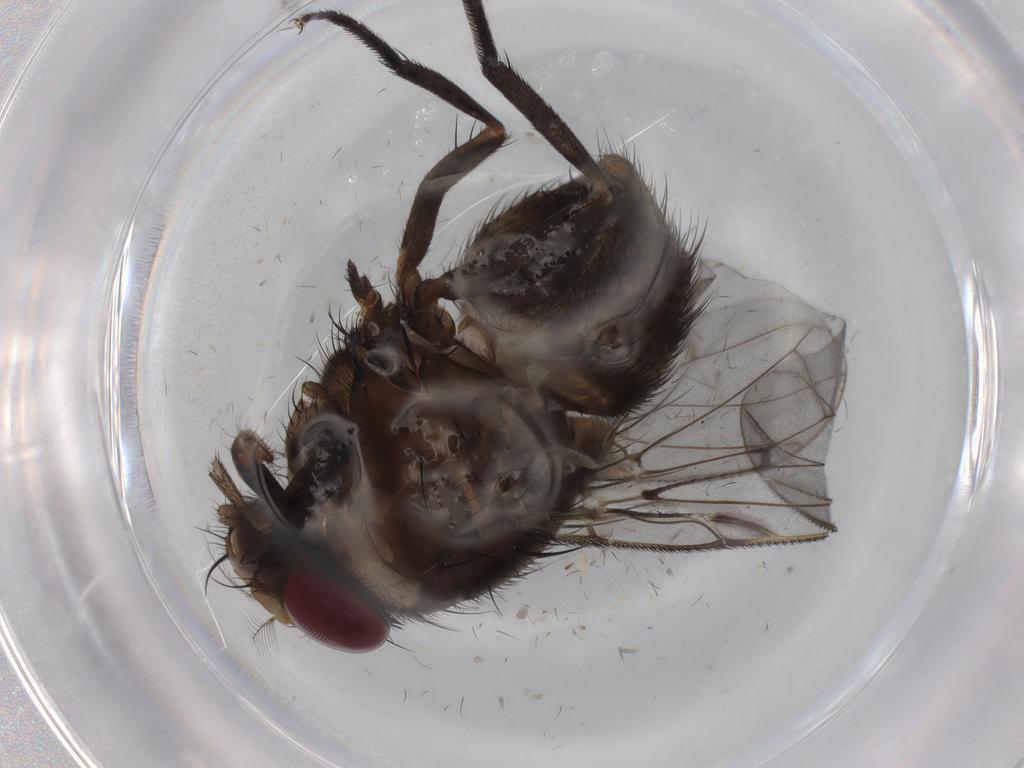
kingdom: Animalia
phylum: Arthropoda
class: Insecta
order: Diptera
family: Muscidae
